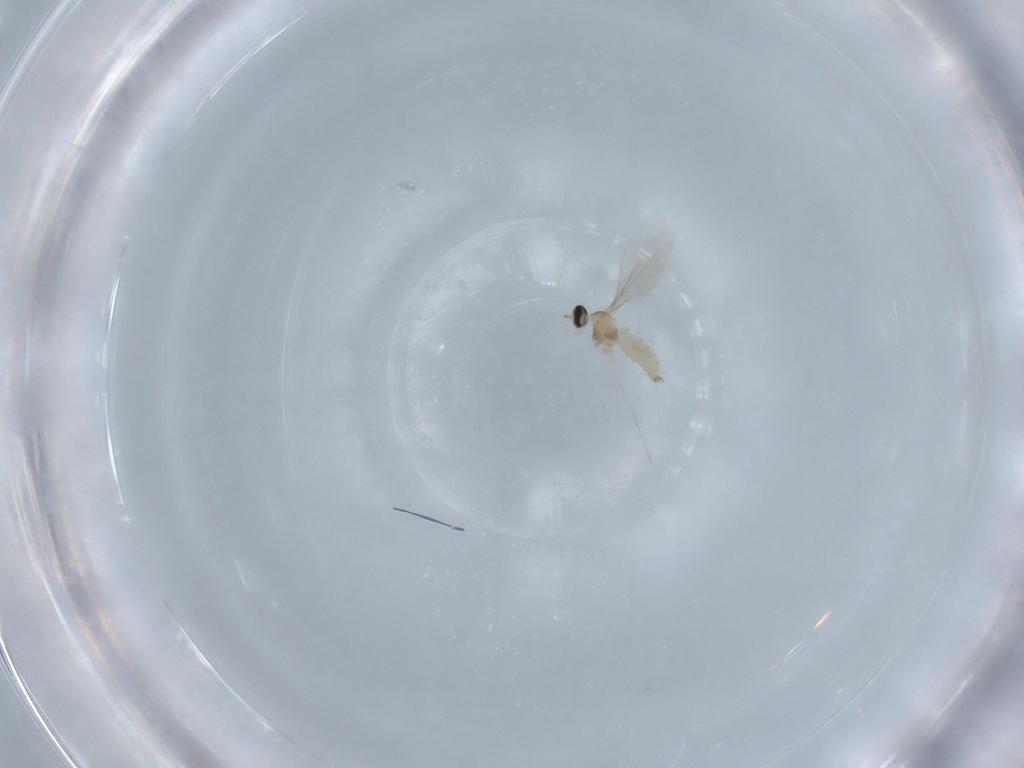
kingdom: Animalia
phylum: Arthropoda
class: Insecta
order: Diptera
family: Cecidomyiidae
